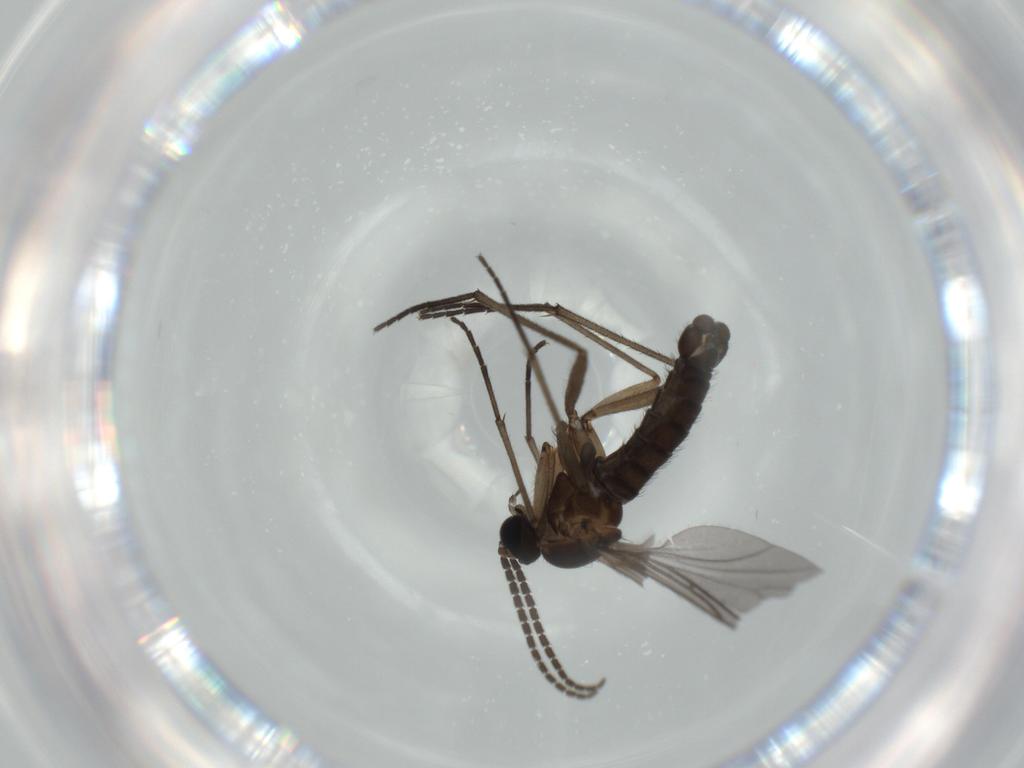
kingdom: Animalia
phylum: Arthropoda
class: Insecta
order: Diptera
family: Sciaridae
